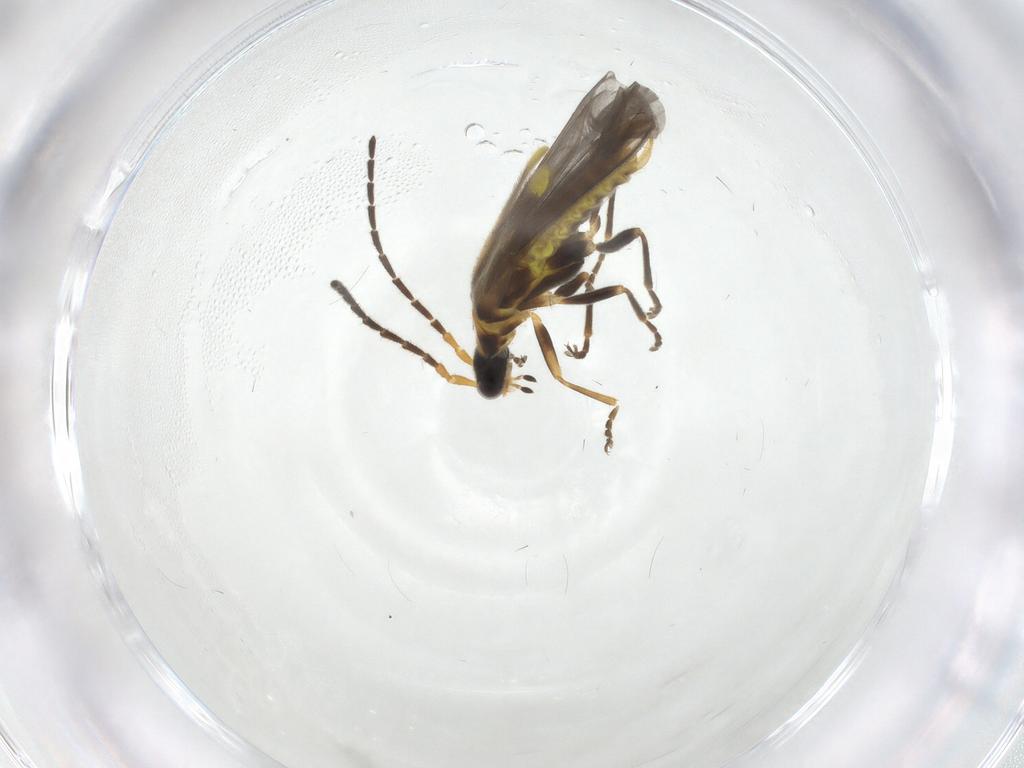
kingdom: Animalia
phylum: Arthropoda
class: Insecta
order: Coleoptera
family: Cantharidae
